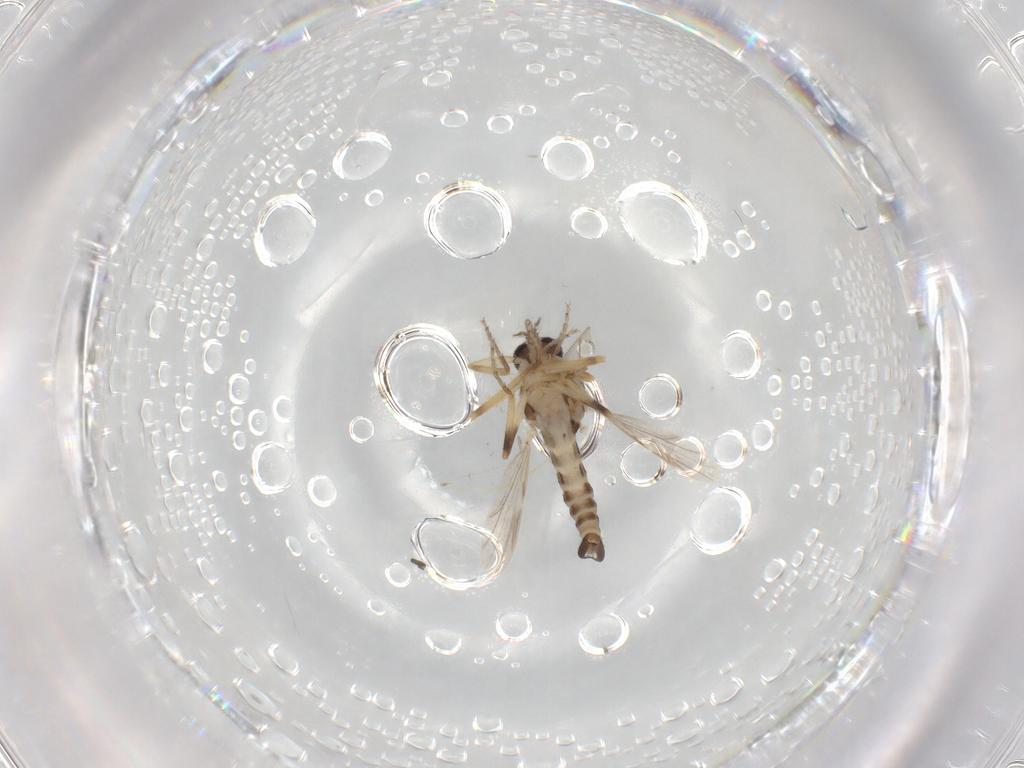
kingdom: Animalia
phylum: Arthropoda
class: Insecta
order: Diptera
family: Ceratopogonidae
